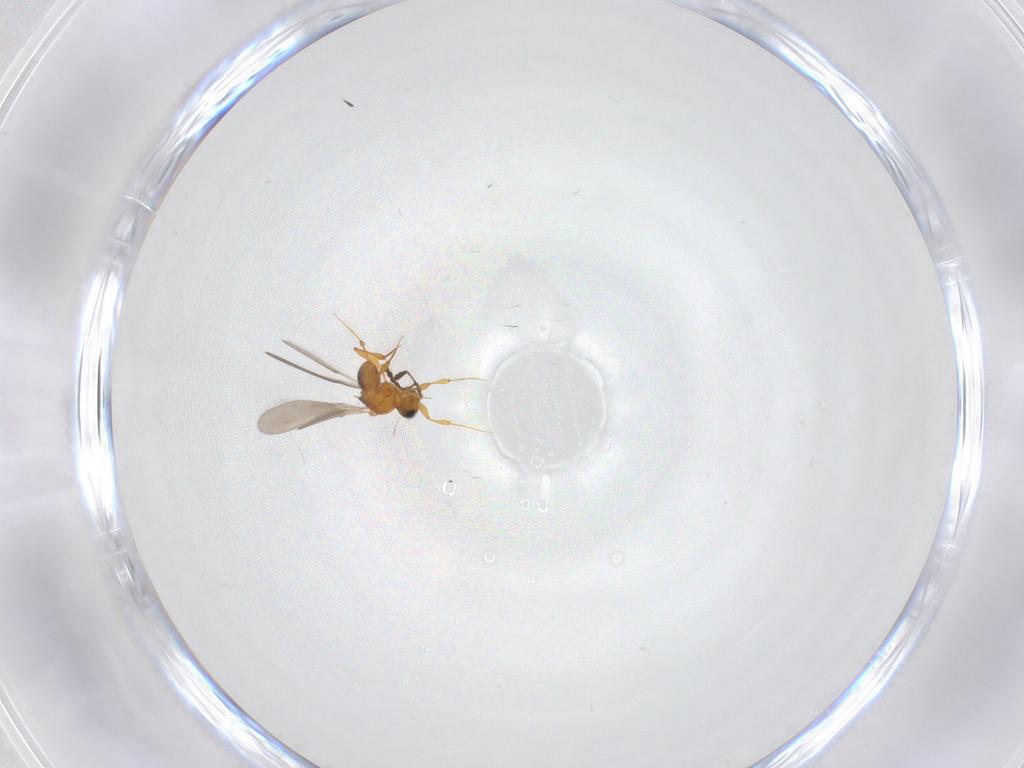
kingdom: Animalia
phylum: Arthropoda
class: Insecta
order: Hymenoptera
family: Platygastridae
